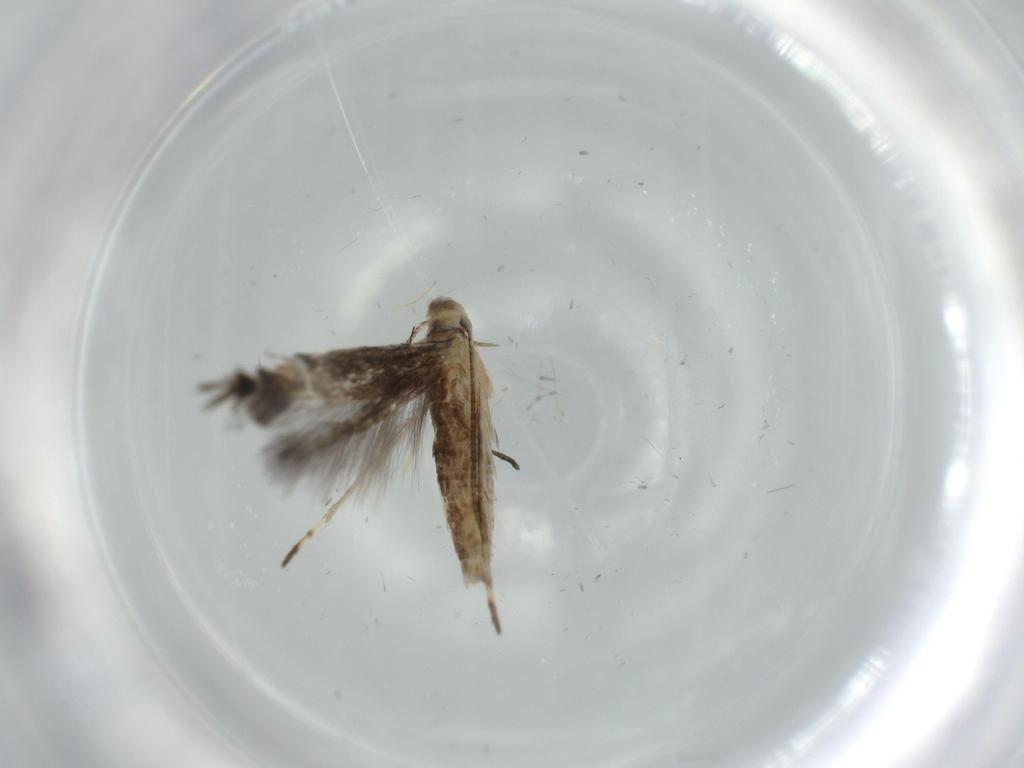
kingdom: Animalia
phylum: Arthropoda
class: Insecta
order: Lepidoptera
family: Gracillariidae
